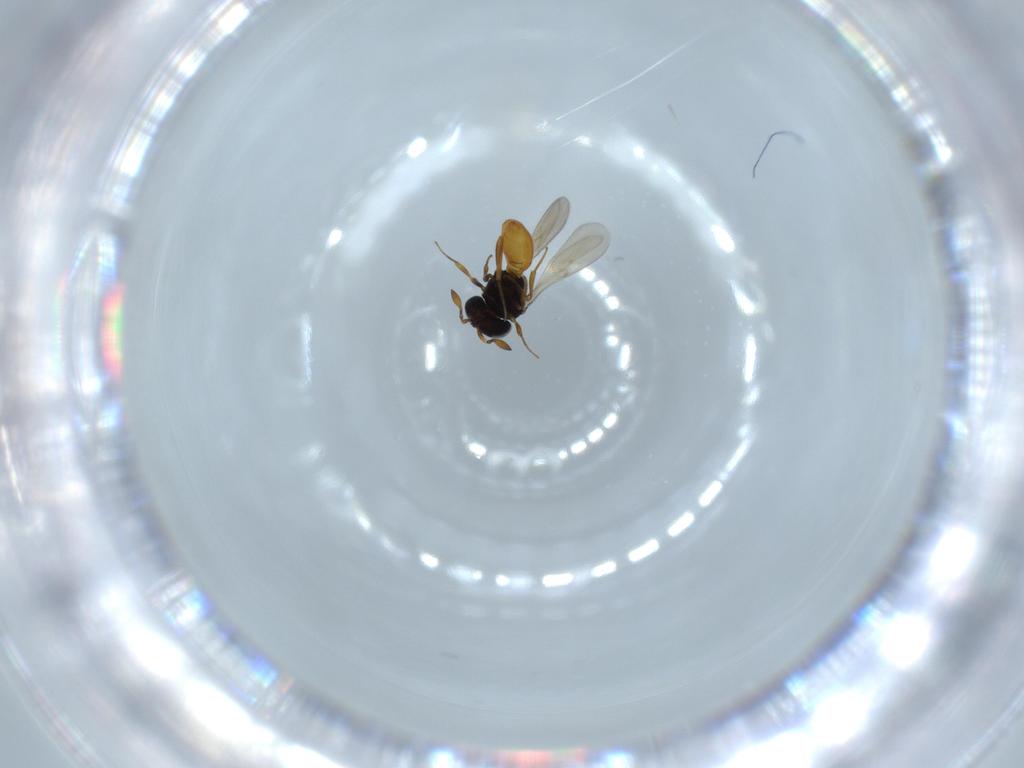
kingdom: Animalia
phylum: Arthropoda
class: Insecta
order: Hymenoptera
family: Scelionidae
